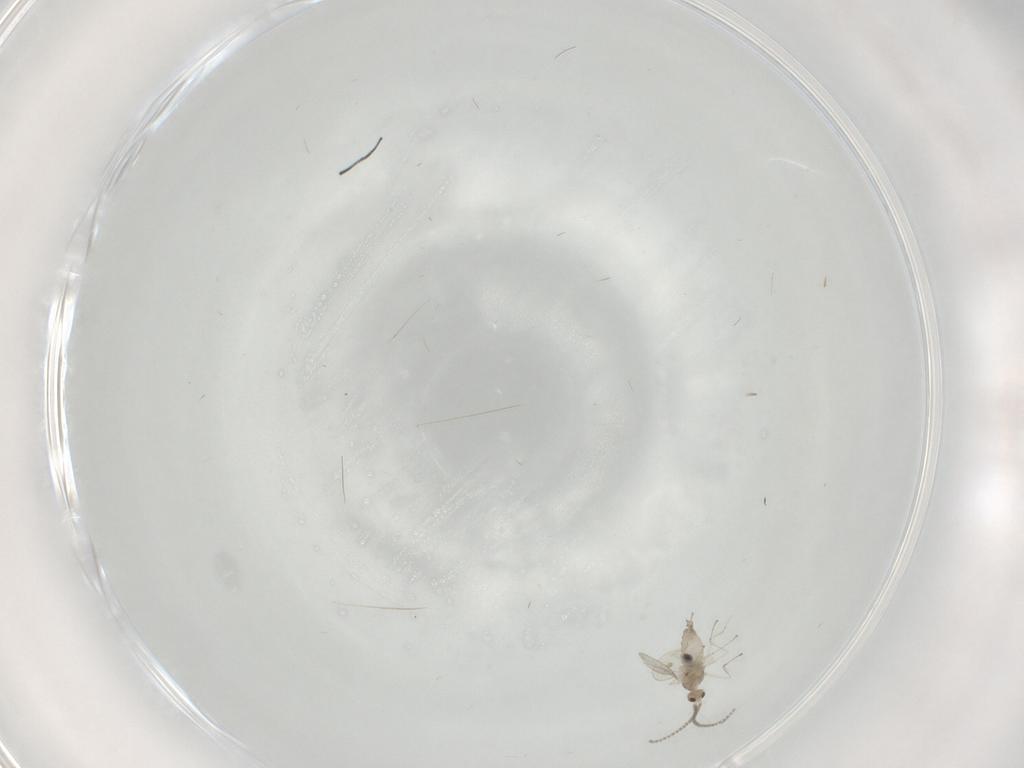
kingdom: Animalia
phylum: Arthropoda
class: Insecta
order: Diptera
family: Cecidomyiidae
